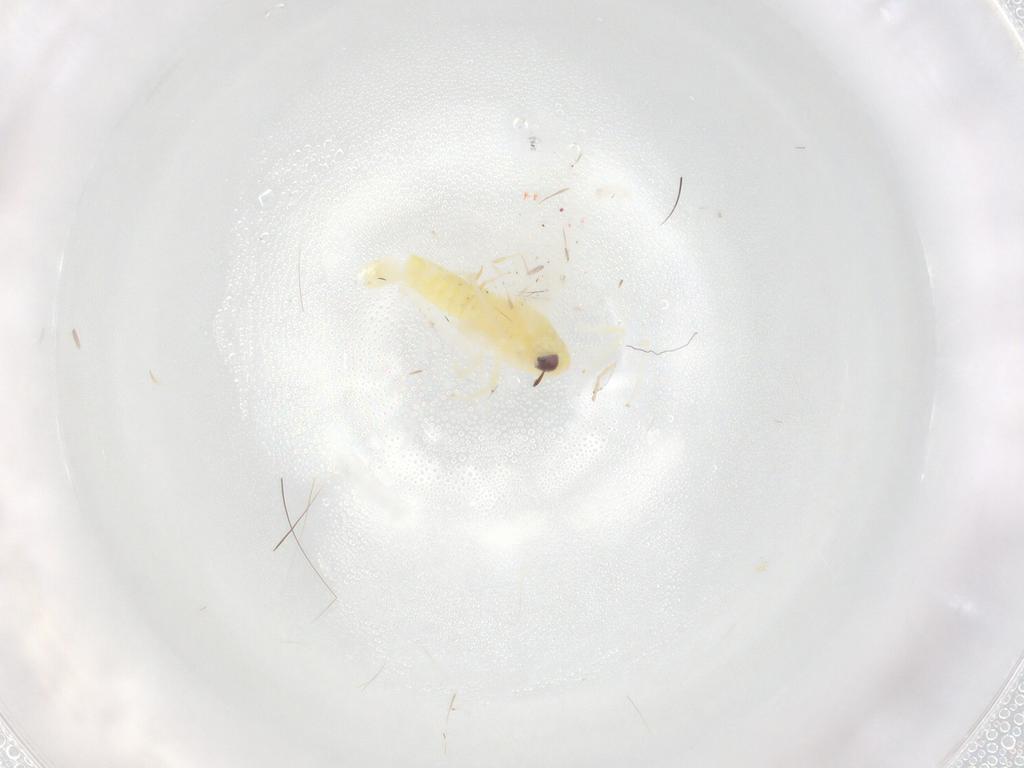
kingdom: Animalia
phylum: Arthropoda
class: Insecta
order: Hemiptera
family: Cicadellidae
